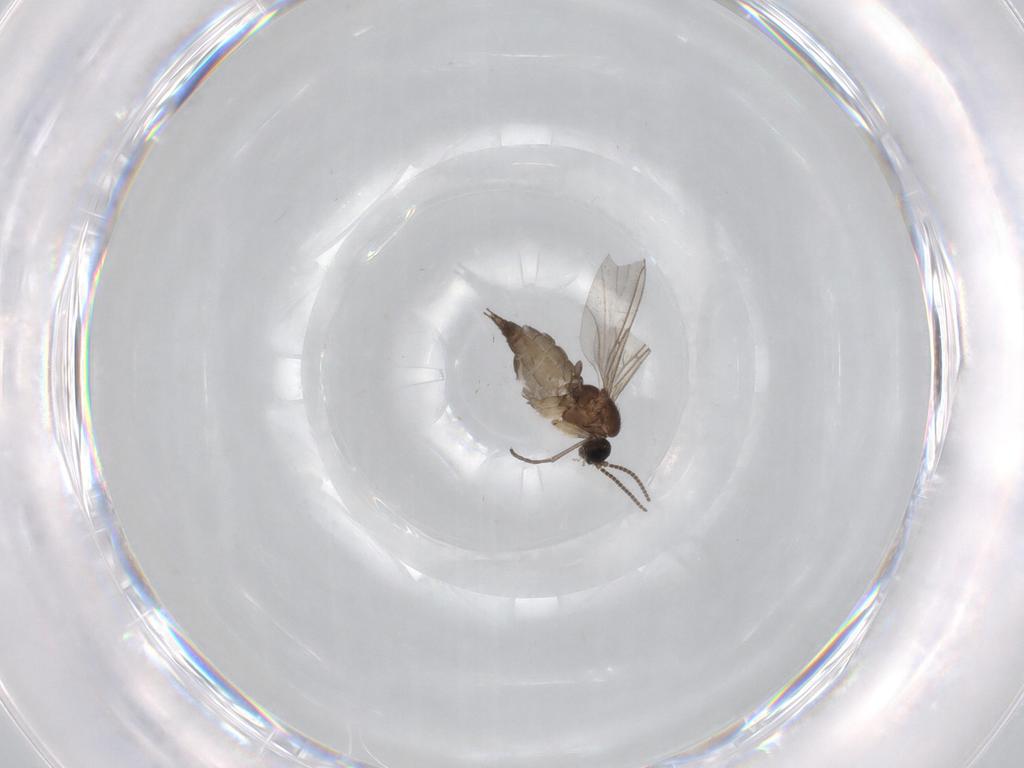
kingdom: Animalia
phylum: Arthropoda
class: Insecta
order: Diptera
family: Sciaridae
